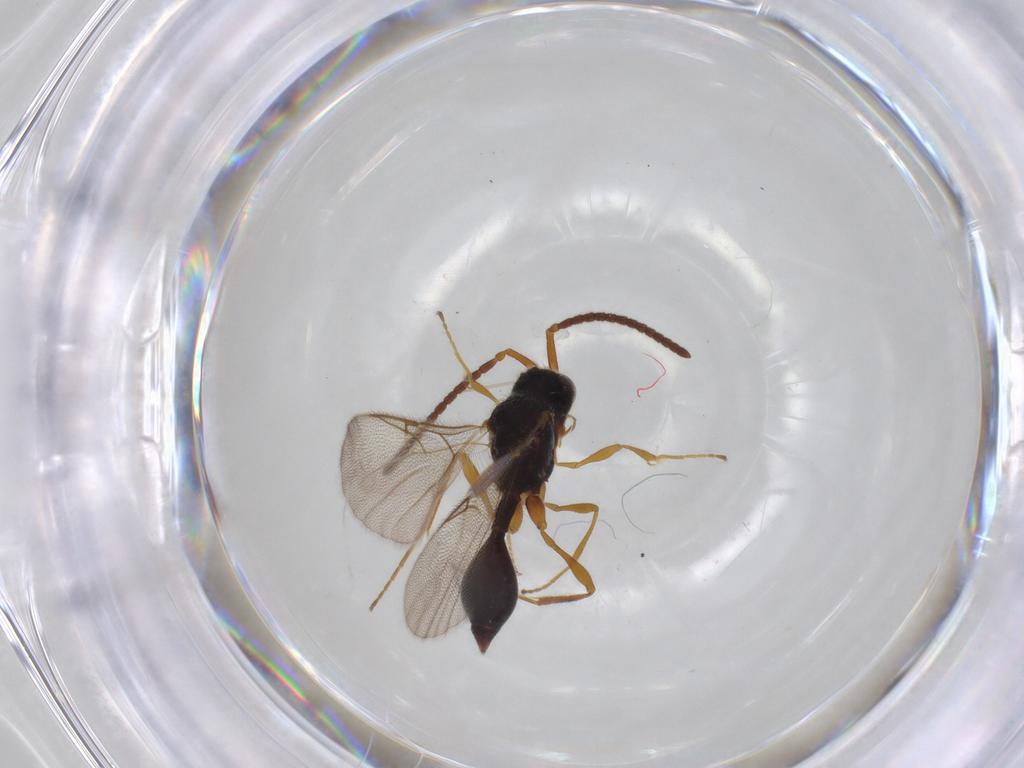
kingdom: Animalia
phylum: Arthropoda
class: Insecta
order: Hymenoptera
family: Diapriidae
